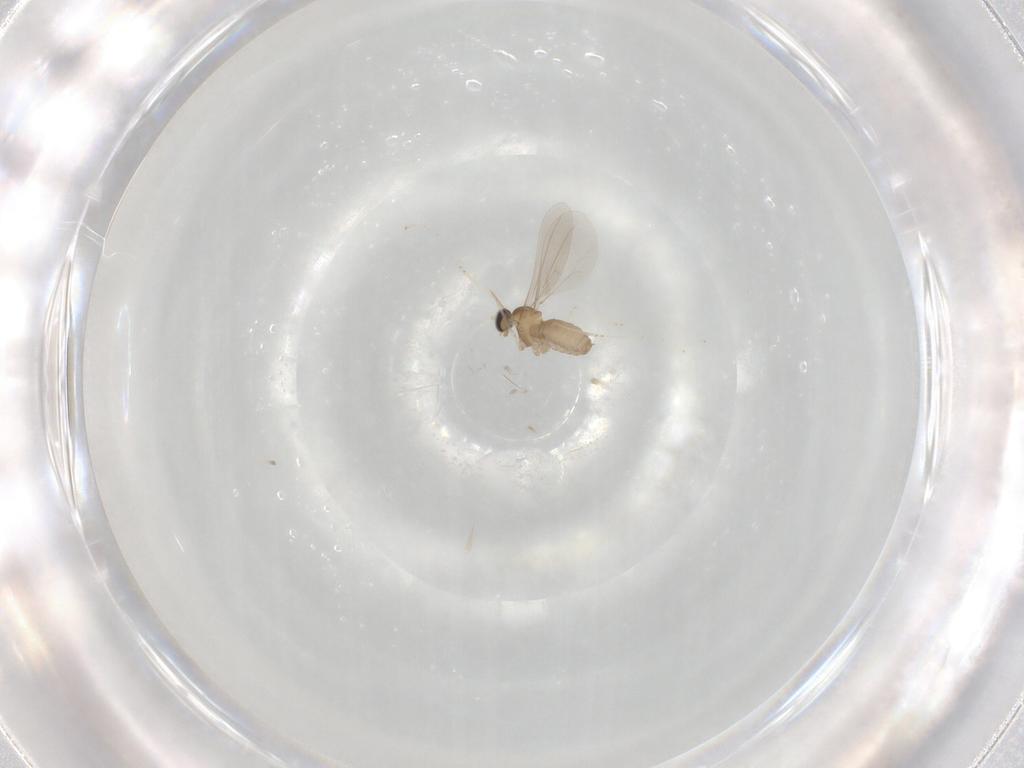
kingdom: Animalia
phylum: Arthropoda
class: Insecta
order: Diptera
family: Cecidomyiidae
